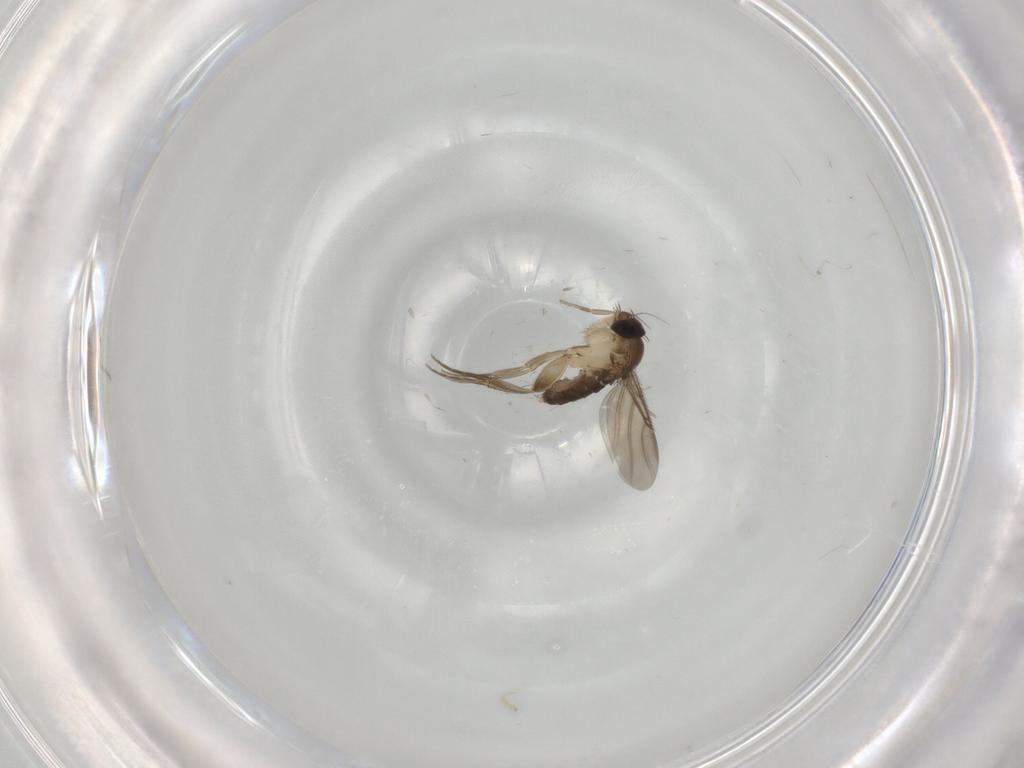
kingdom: Animalia
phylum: Arthropoda
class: Insecta
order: Diptera
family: Phoridae
